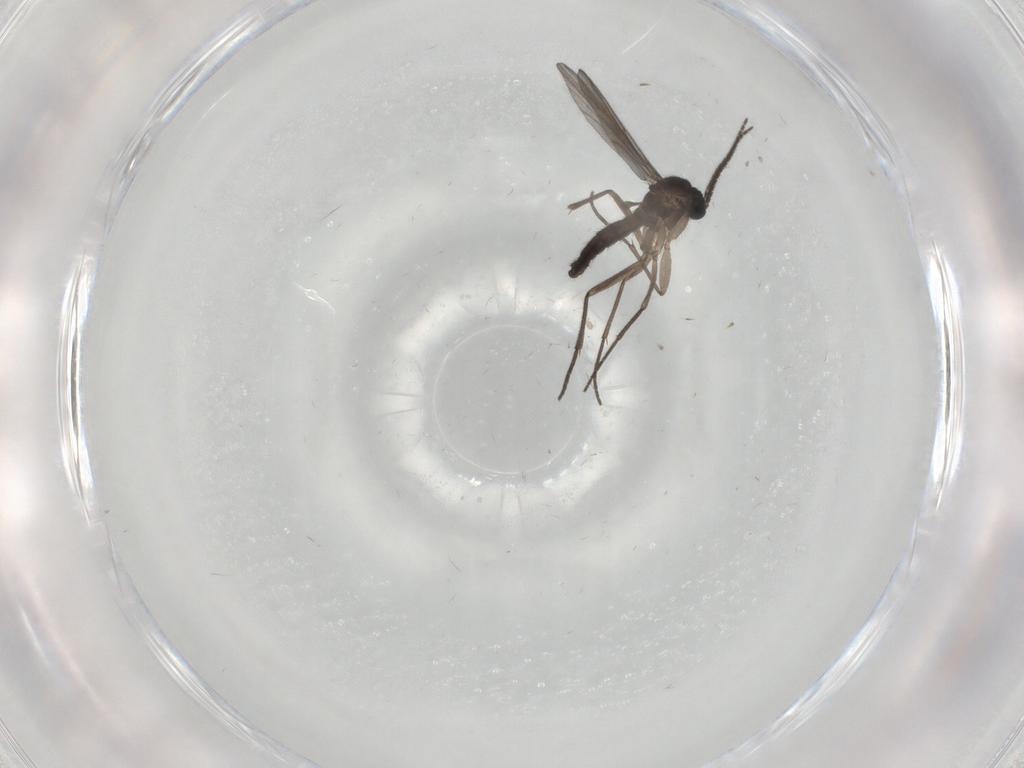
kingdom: Animalia
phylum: Arthropoda
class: Insecta
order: Diptera
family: Sciaridae
